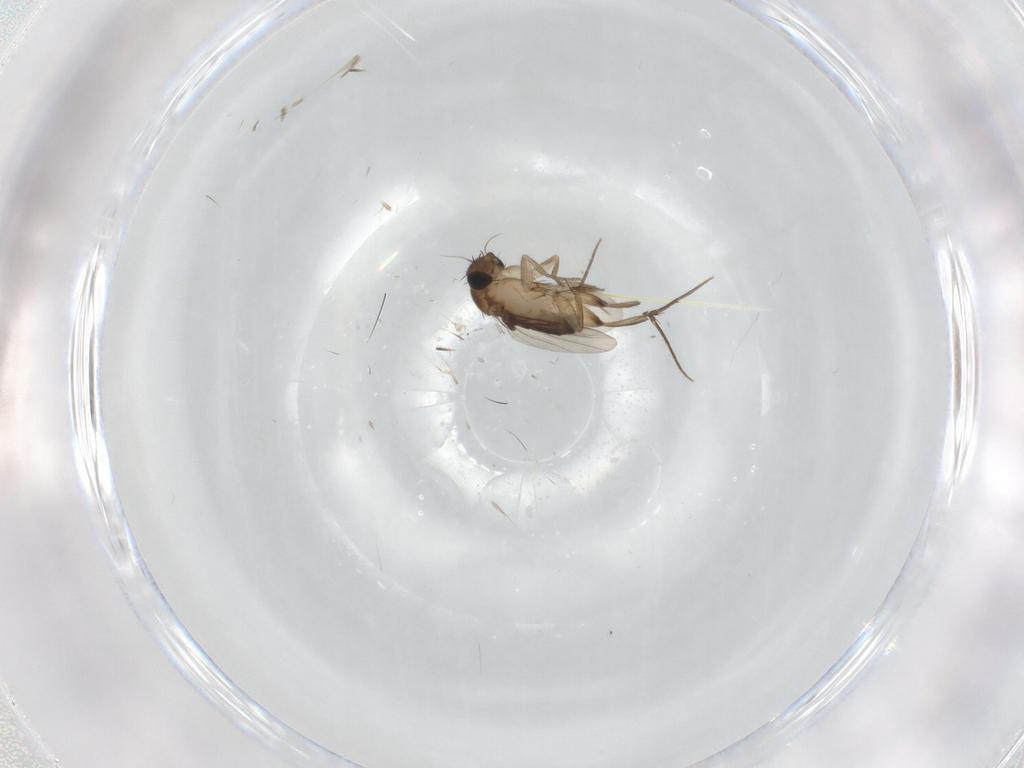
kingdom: Animalia
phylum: Arthropoda
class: Insecta
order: Diptera
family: Phoridae
